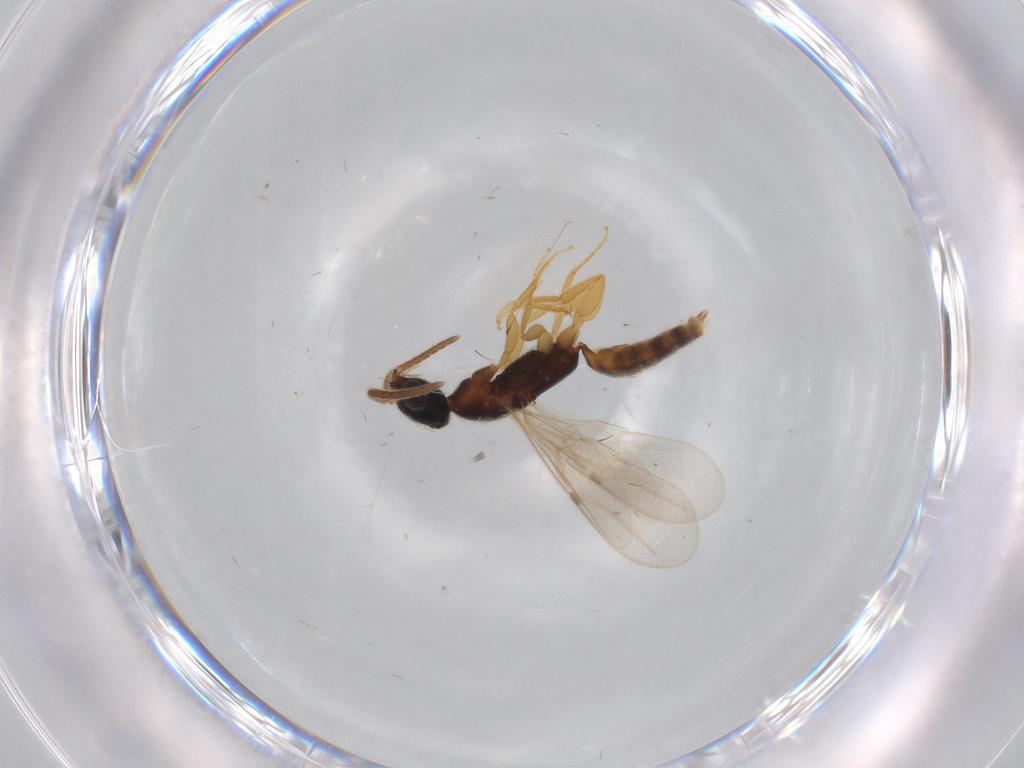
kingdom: Animalia
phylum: Arthropoda
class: Insecta
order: Hymenoptera
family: Bethylidae
